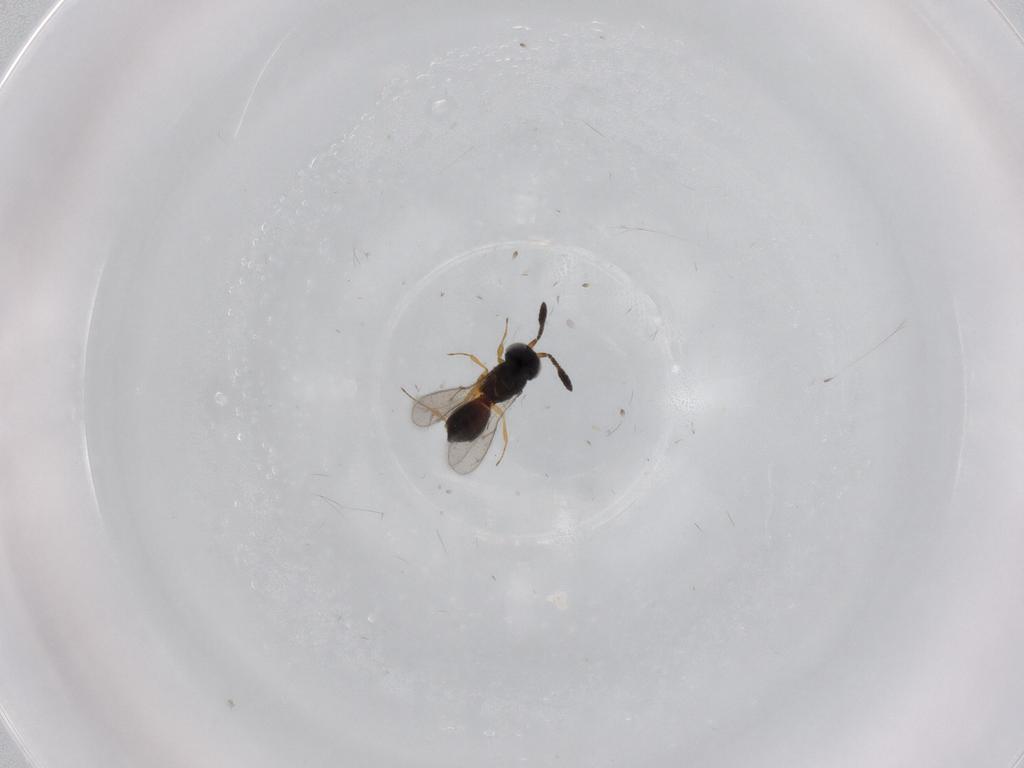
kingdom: Animalia
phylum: Arthropoda
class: Insecta
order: Hymenoptera
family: Scelionidae
